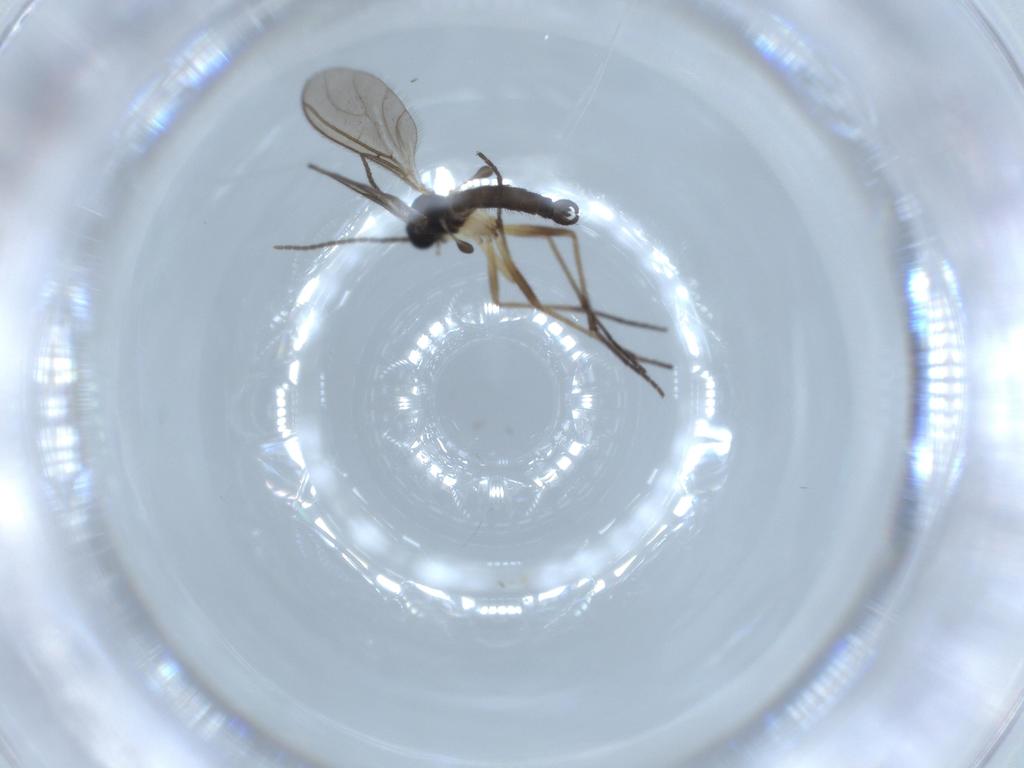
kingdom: Animalia
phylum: Arthropoda
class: Insecta
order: Diptera
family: Sciaridae
